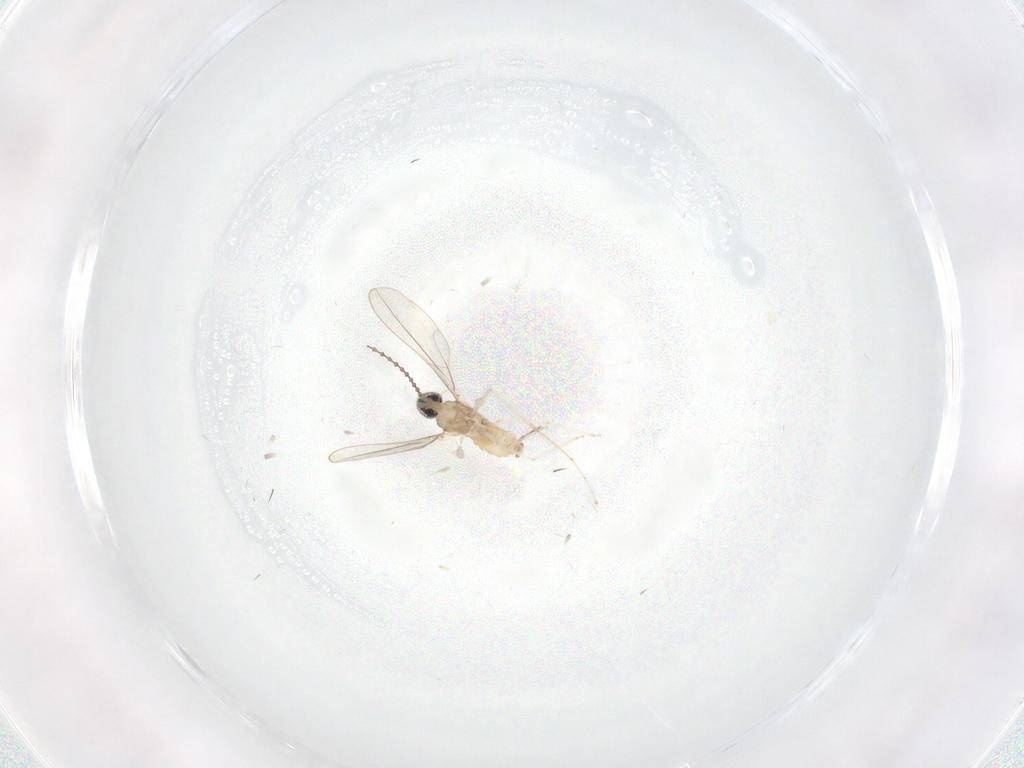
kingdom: Animalia
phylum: Arthropoda
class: Insecta
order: Diptera
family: Cecidomyiidae
